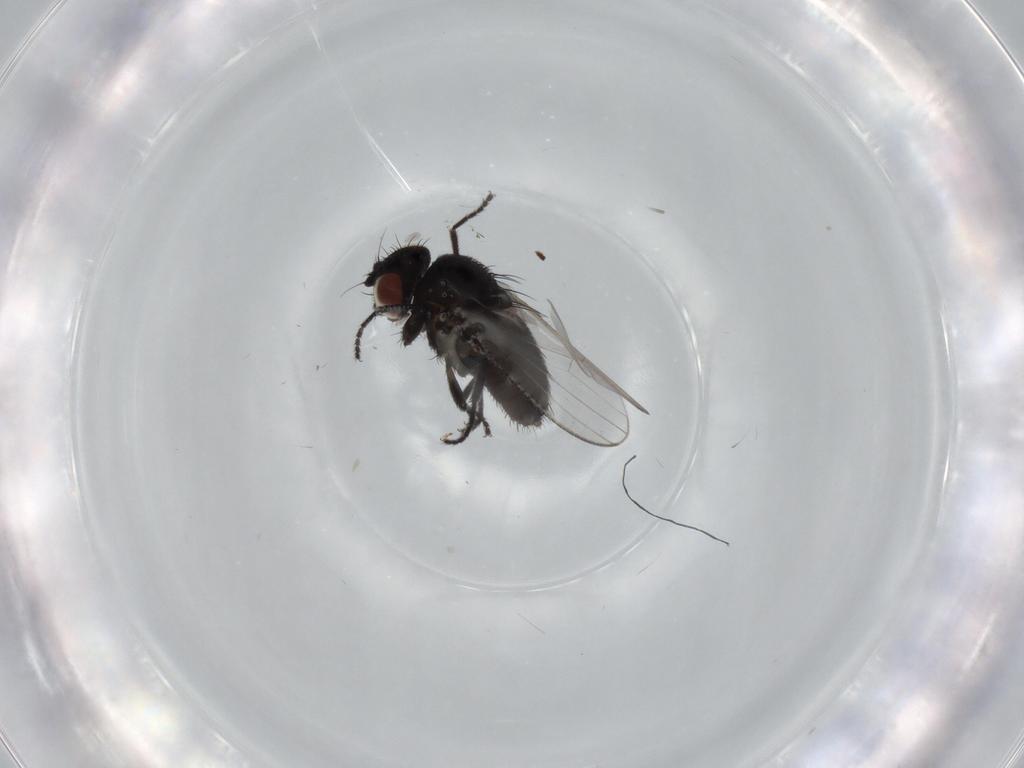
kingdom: Animalia
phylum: Arthropoda
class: Insecta
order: Diptera
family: Milichiidae
